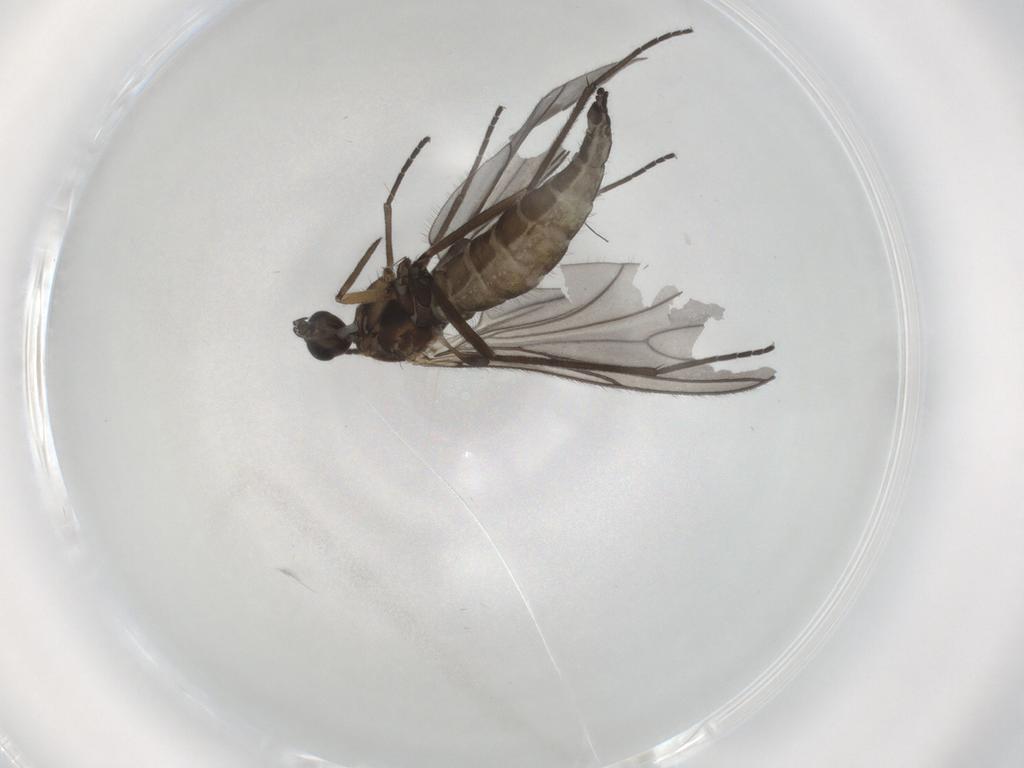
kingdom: Animalia
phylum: Arthropoda
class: Insecta
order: Diptera
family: Sciaridae
